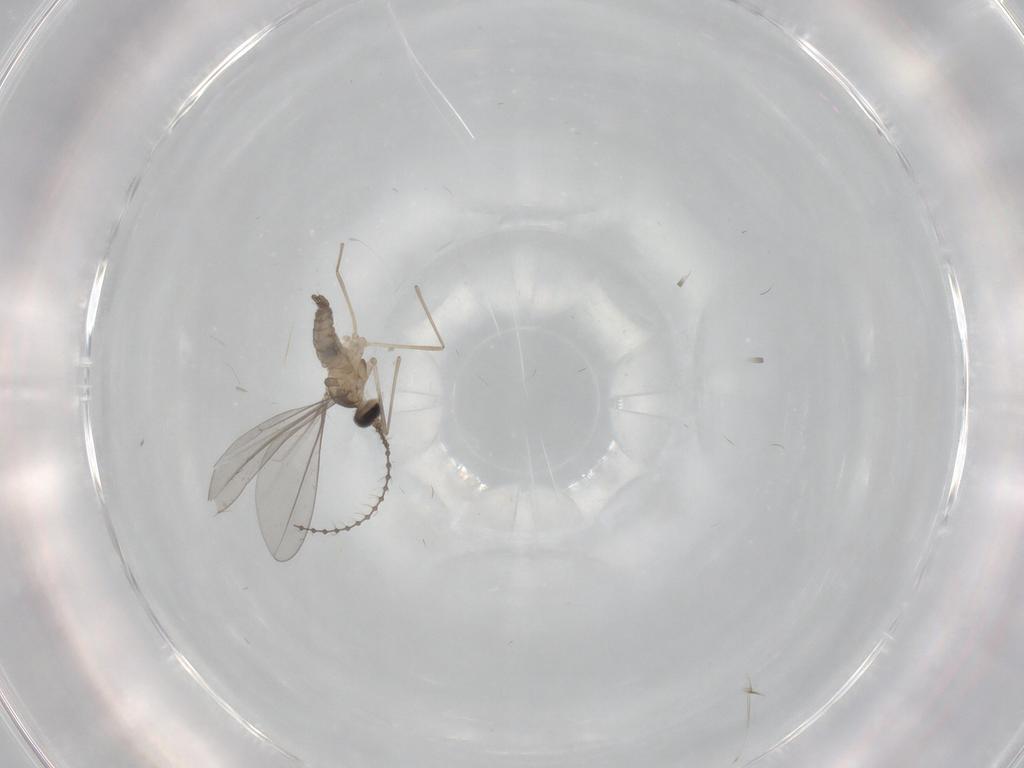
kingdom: Animalia
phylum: Arthropoda
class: Insecta
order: Diptera
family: Cecidomyiidae
